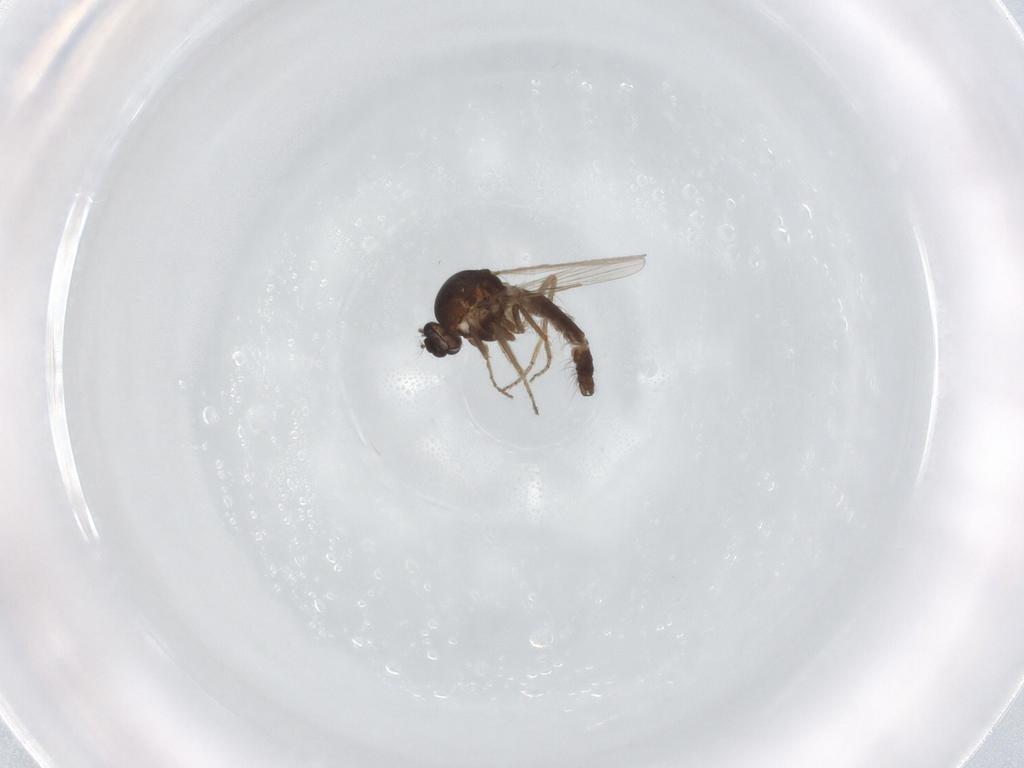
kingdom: Animalia
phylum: Arthropoda
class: Insecta
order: Diptera
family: Ceratopogonidae
